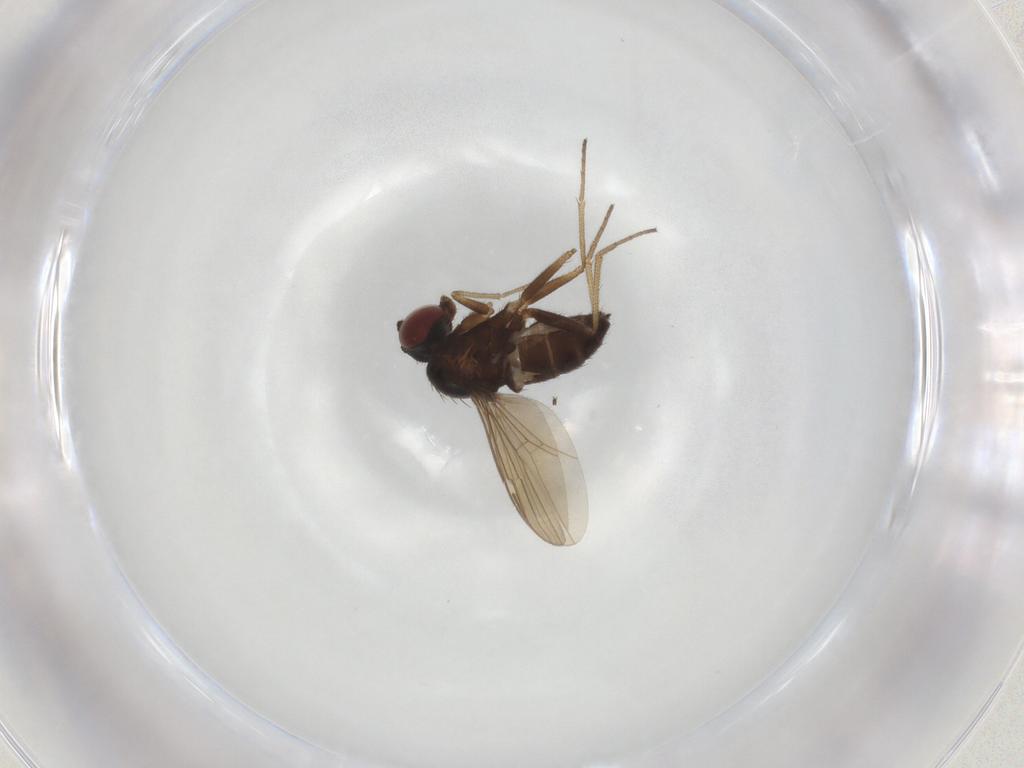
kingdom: Animalia
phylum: Arthropoda
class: Insecta
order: Diptera
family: Dolichopodidae
